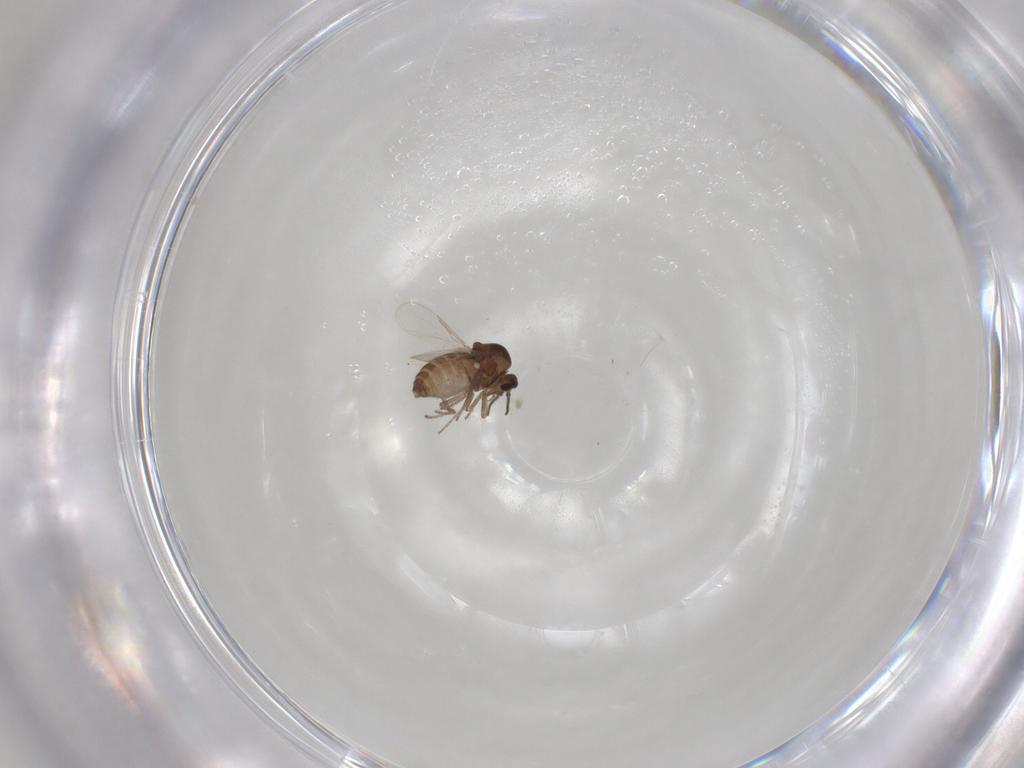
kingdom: Animalia
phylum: Arthropoda
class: Insecta
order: Diptera
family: Ceratopogonidae
